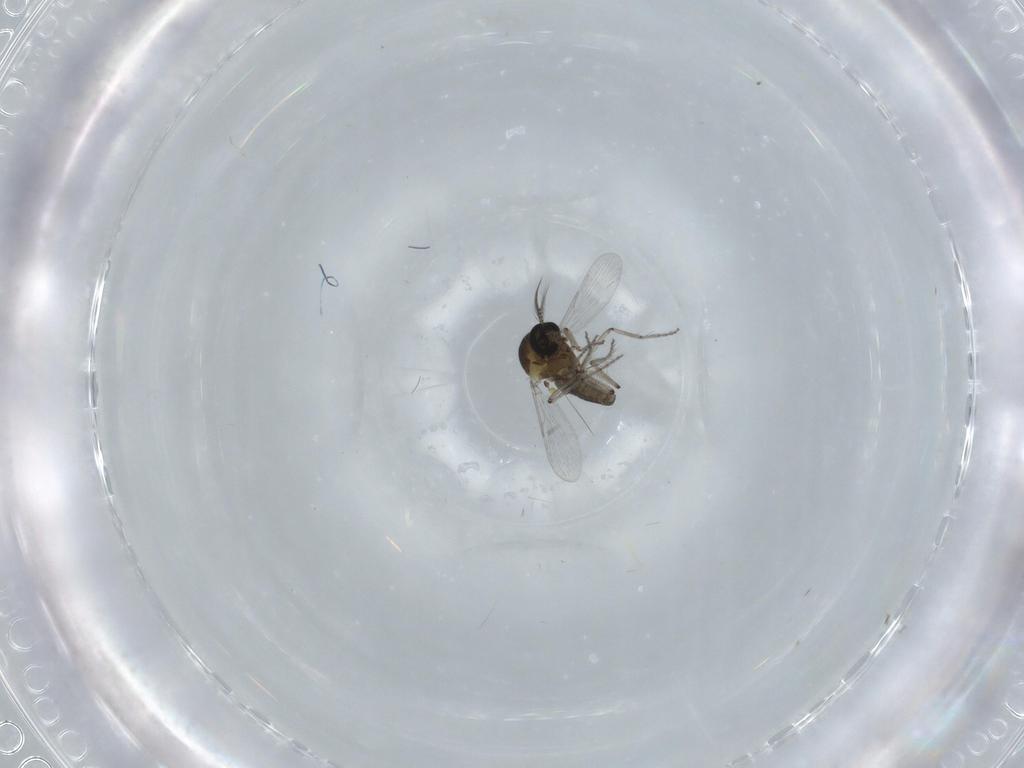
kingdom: Animalia
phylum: Arthropoda
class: Insecta
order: Diptera
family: Ceratopogonidae
